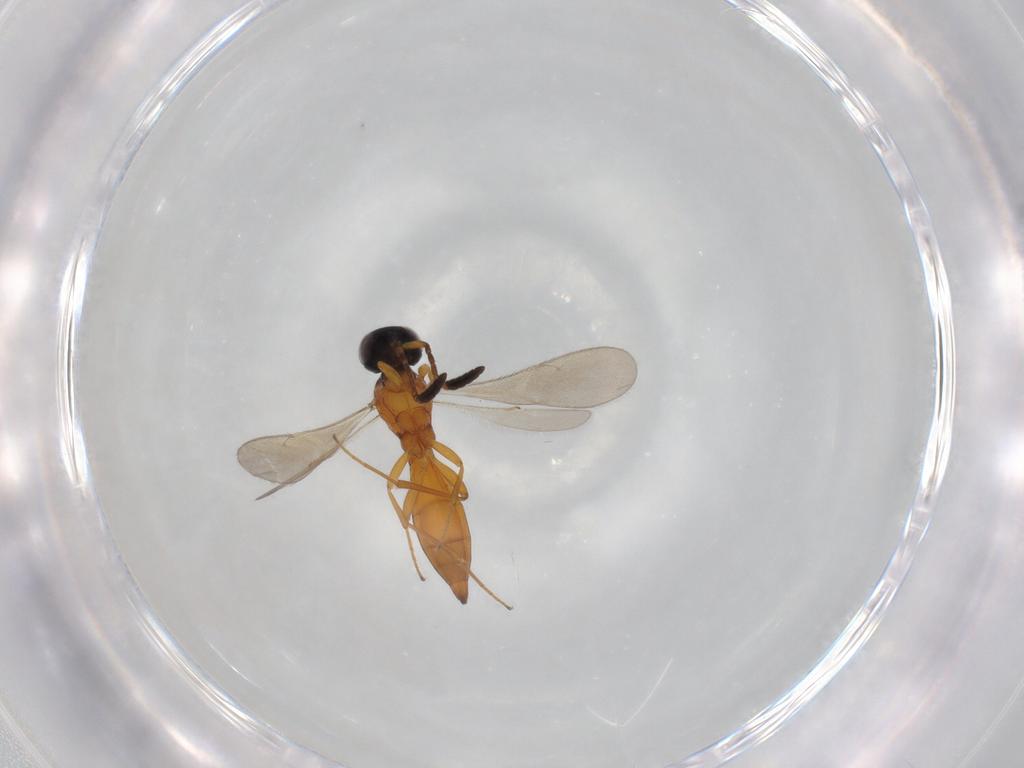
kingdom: Animalia
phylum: Arthropoda
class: Insecta
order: Hymenoptera
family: Scelionidae
